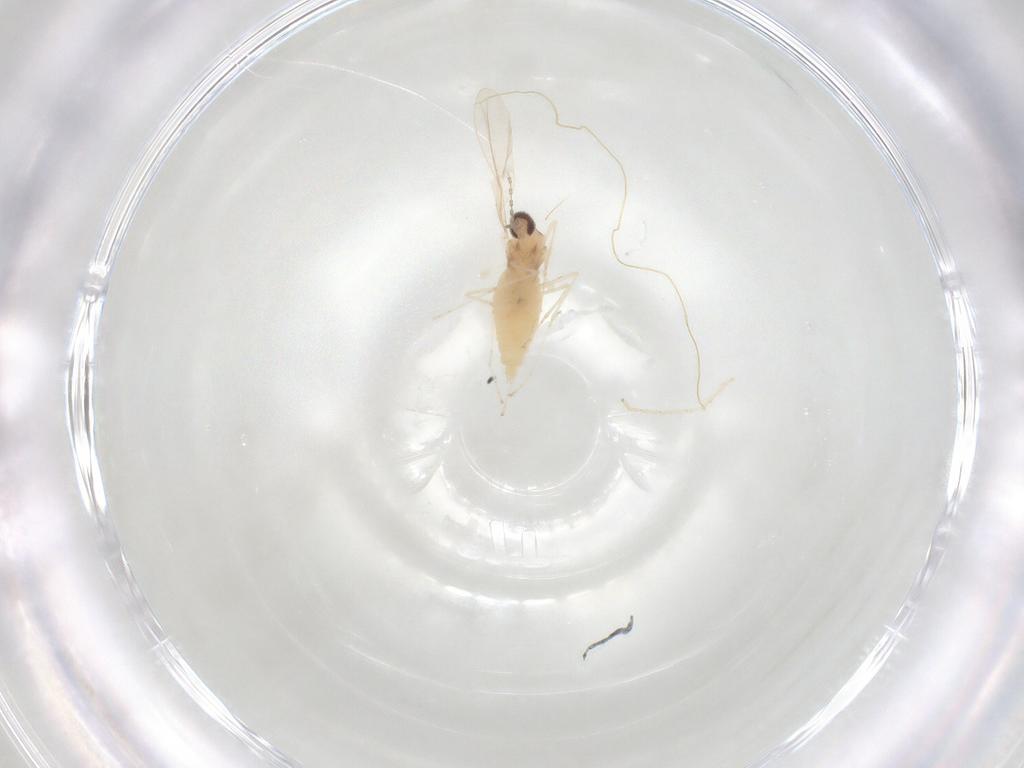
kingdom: Animalia
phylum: Arthropoda
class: Insecta
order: Diptera
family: Cecidomyiidae
